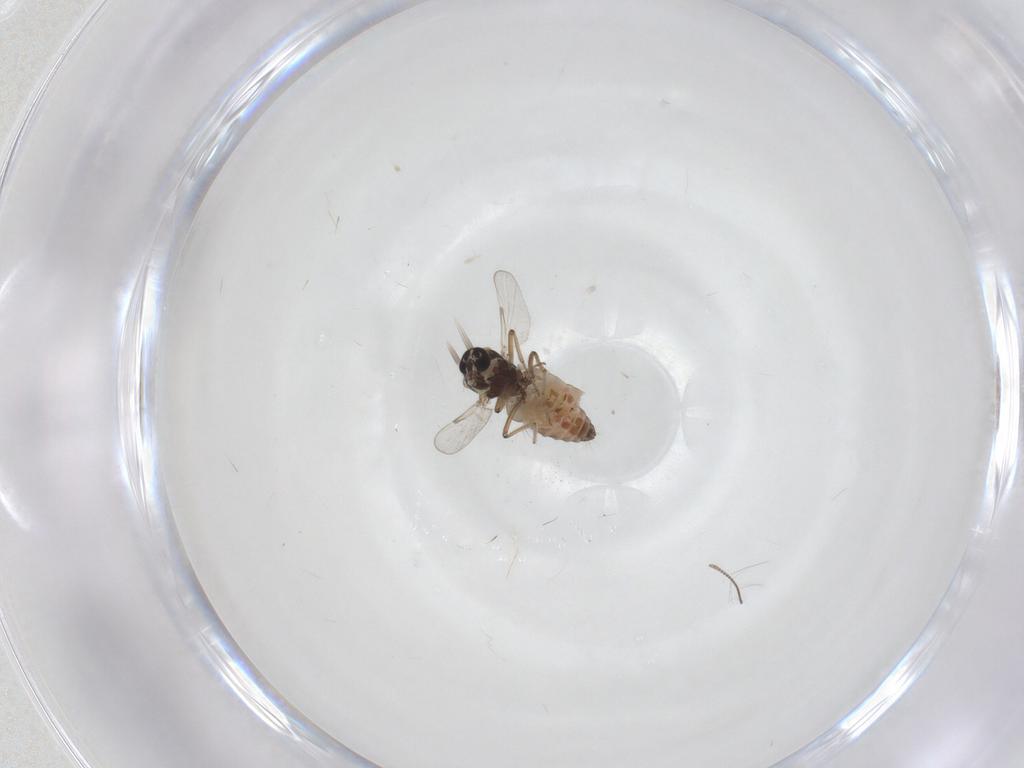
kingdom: Animalia
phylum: Arthropoda
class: Insecta
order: Diptera
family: Ceratopogonidae
